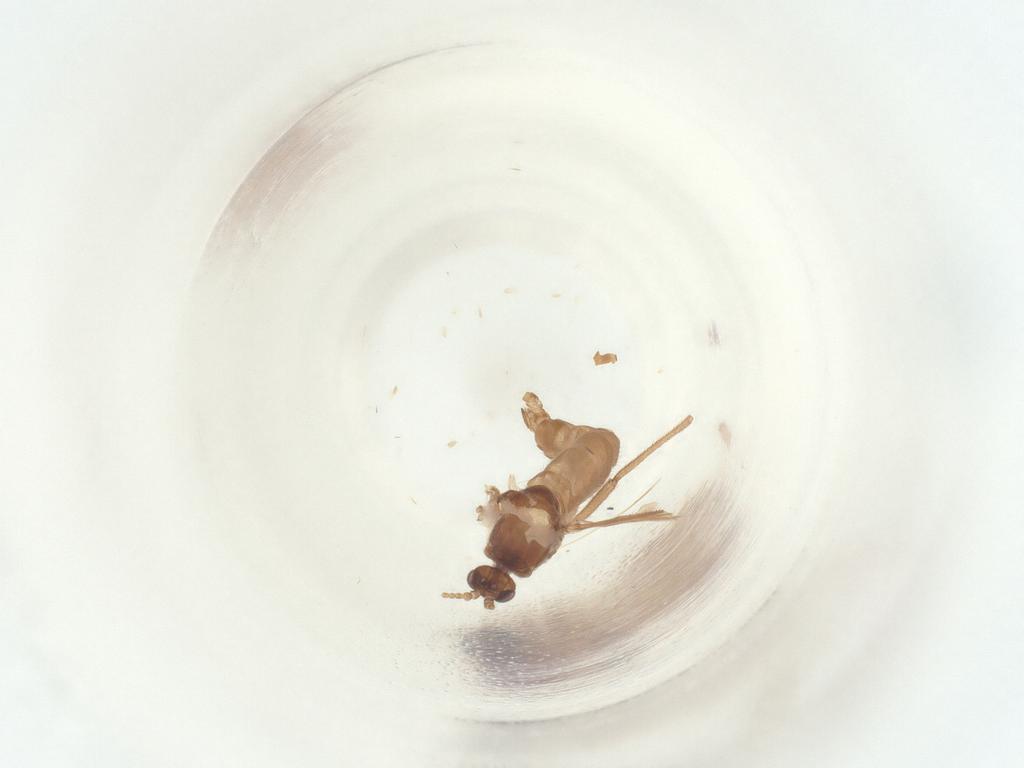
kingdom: Animalia
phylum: Arthropoda
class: Insecta
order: Diptera
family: Sciaridae
